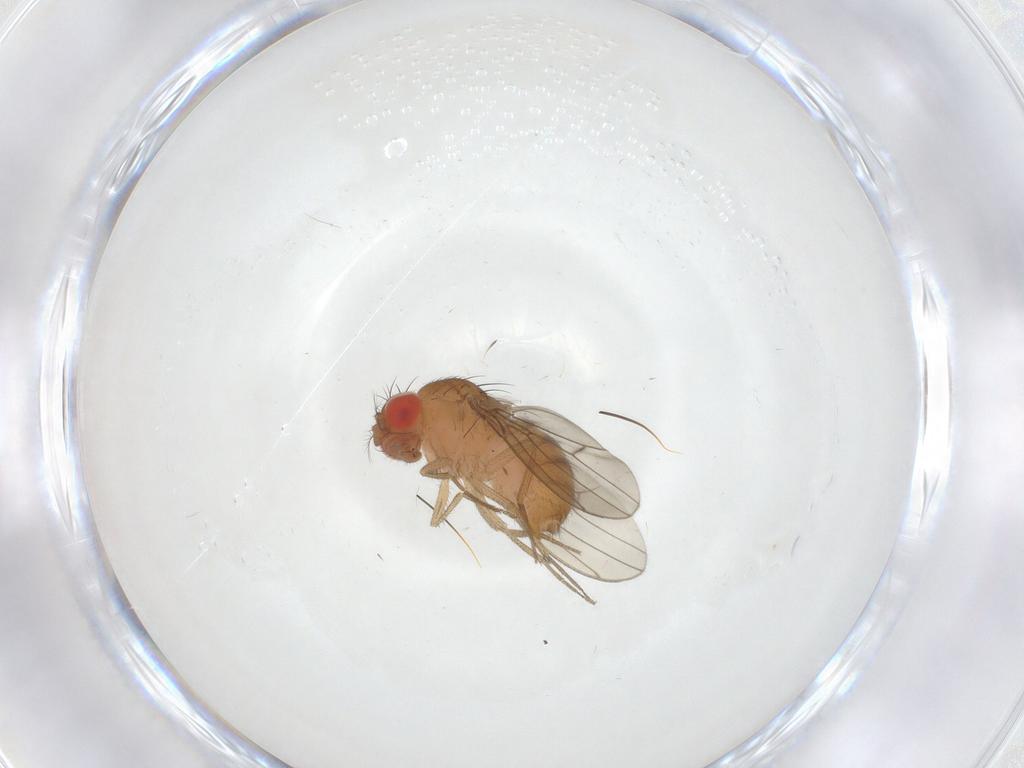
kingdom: Animalia
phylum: Arthropoda
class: Insecta
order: Diptera
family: Drosophilidae
